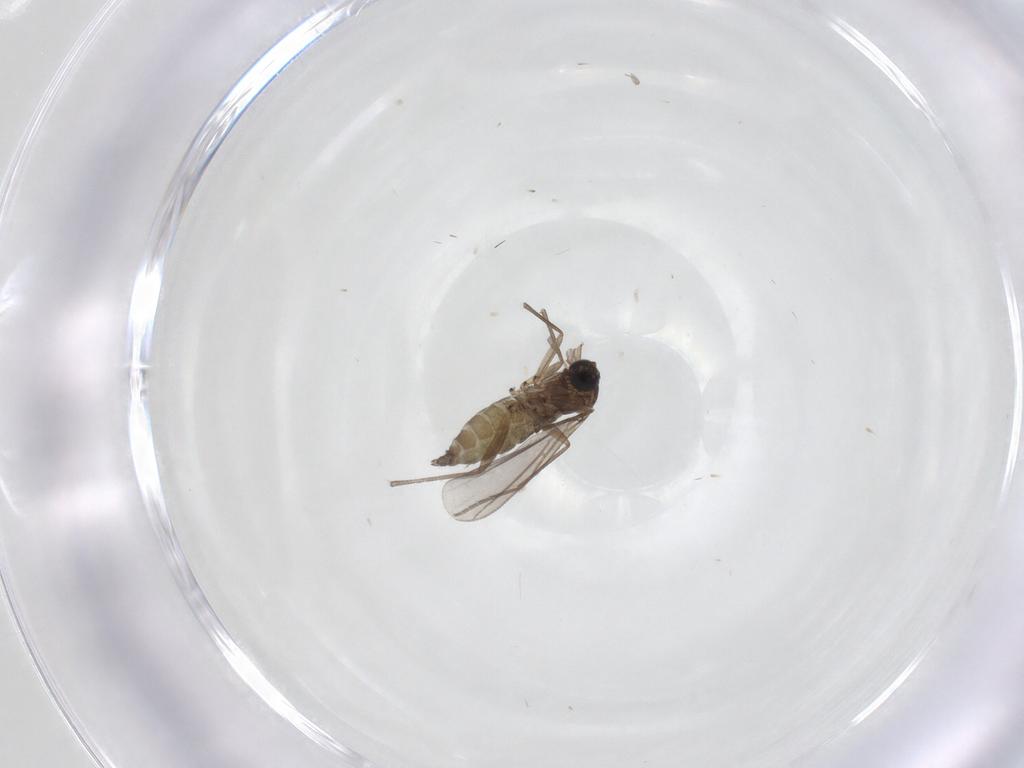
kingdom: Animalia
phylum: Arthropoda
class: Insecta
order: Diptera
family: Sciaridae
